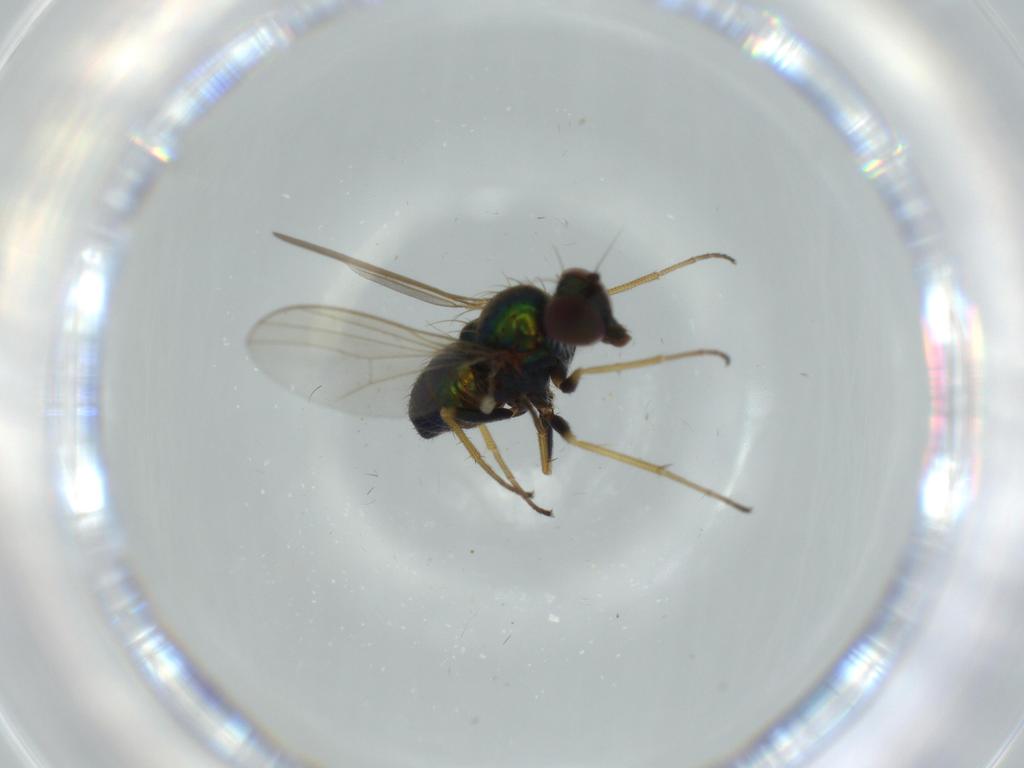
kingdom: Animalia
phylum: Arthropoda
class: Insecta
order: Diptera
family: Dolichopodidae
